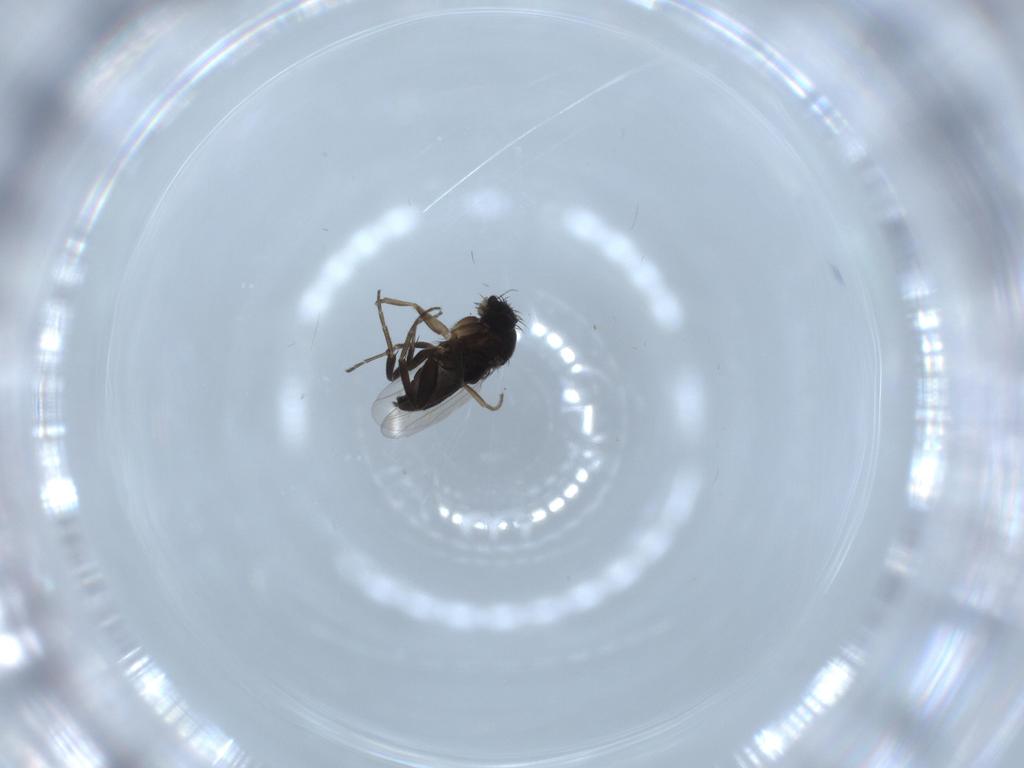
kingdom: Animalia
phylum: Arthropoda
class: Insecta
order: Diptera
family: Phoridae
